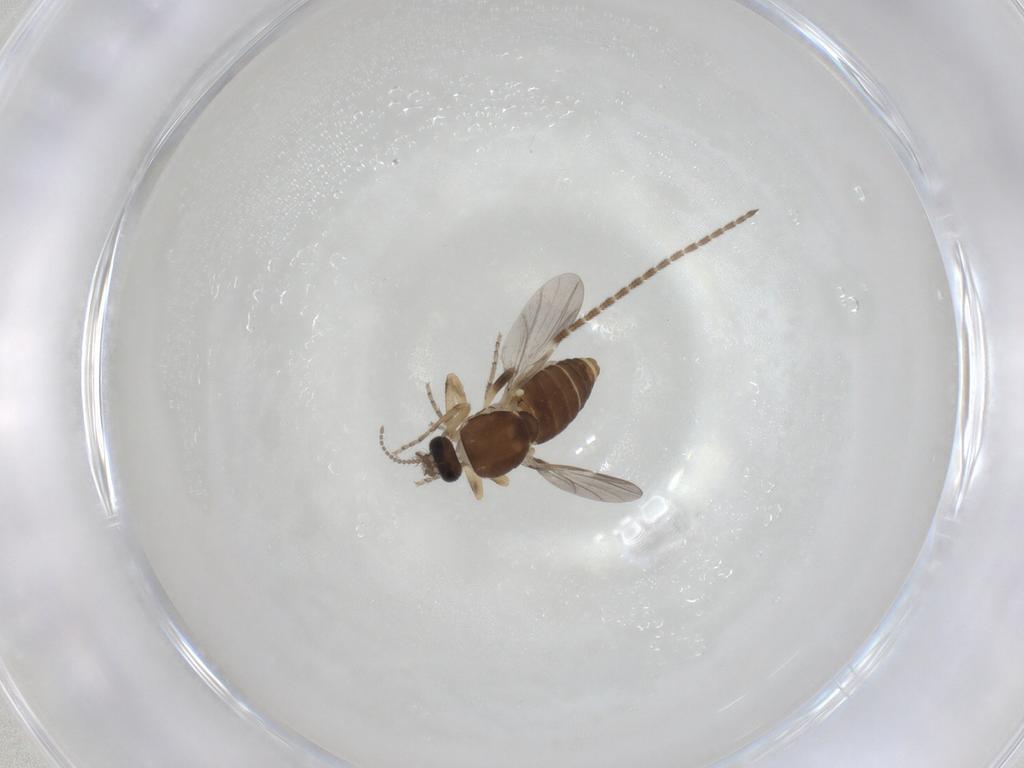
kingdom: Animalia
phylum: Arthropoda
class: Insecta
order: Diptera
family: Ceratopogonidae
